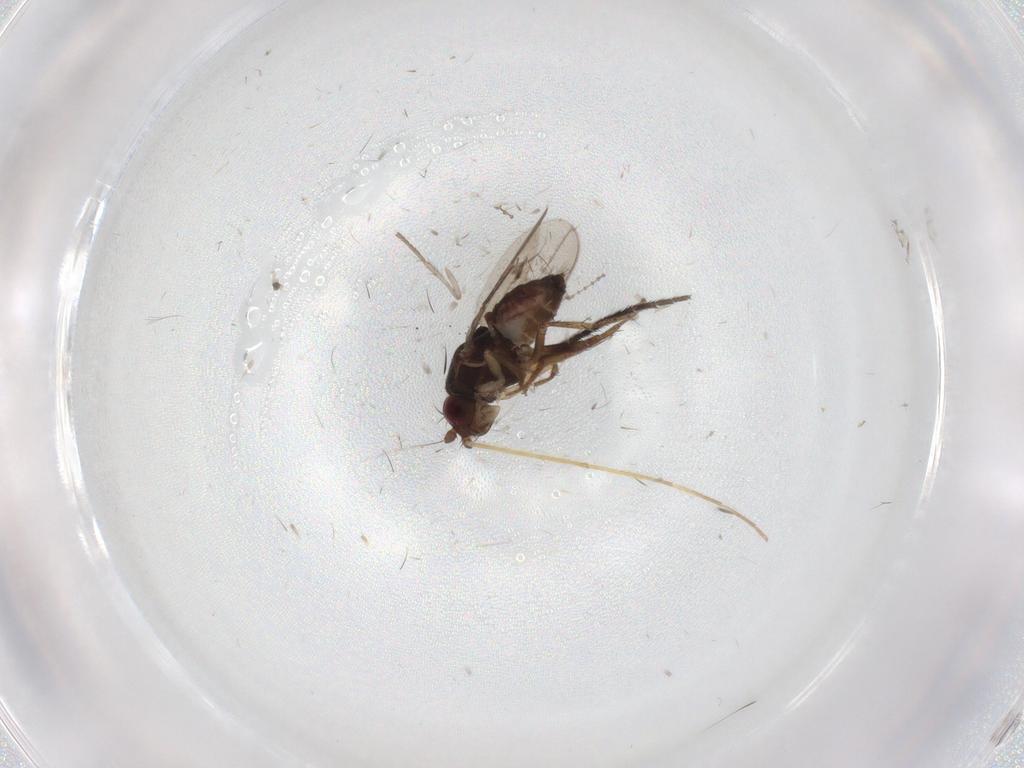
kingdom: Animalia
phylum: Arthropoda
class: Insecta
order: Diptera
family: Sciaridae
